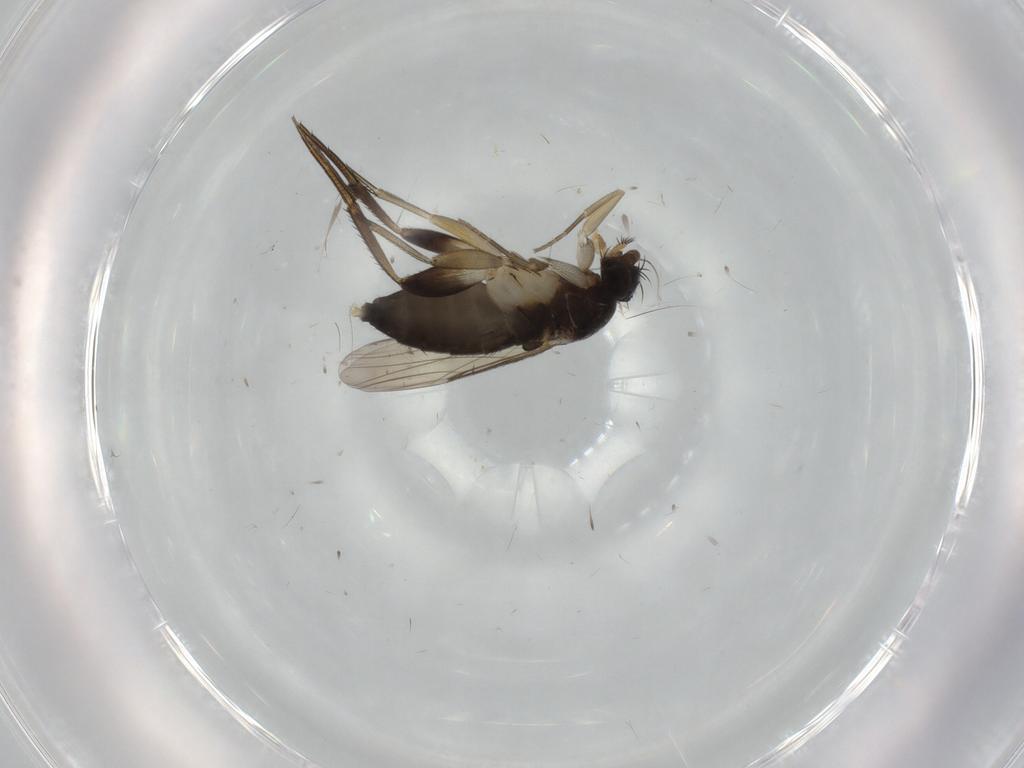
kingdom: Animalia
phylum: Arthropoda
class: Insecta
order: Diptera
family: Phoridae
